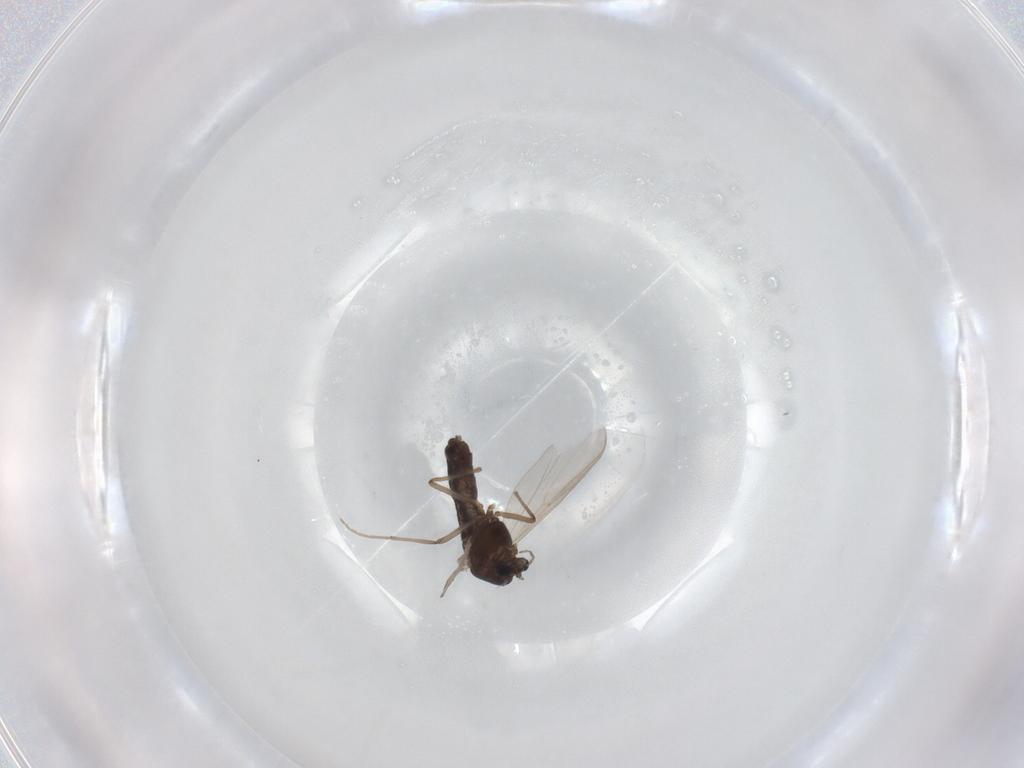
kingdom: Animalia
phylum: Arthropoda
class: Insecta
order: Diptera
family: Chironomidae
